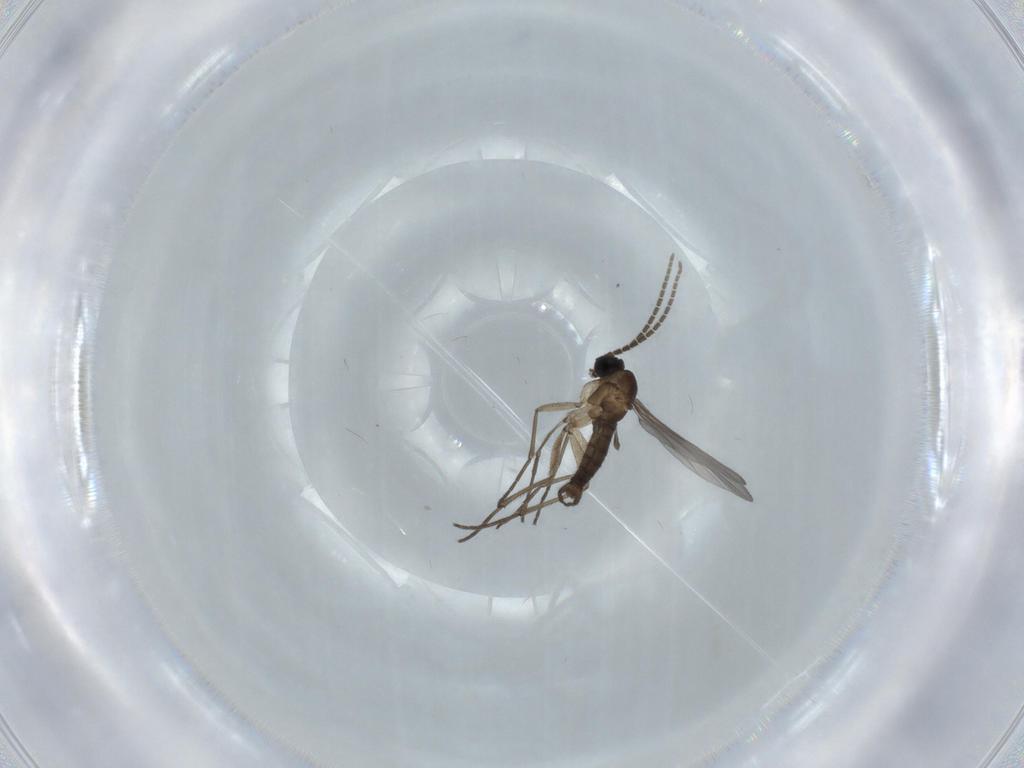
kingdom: Animalia
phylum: Arthropoda
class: Insecta
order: Diptera
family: Sciaridae
